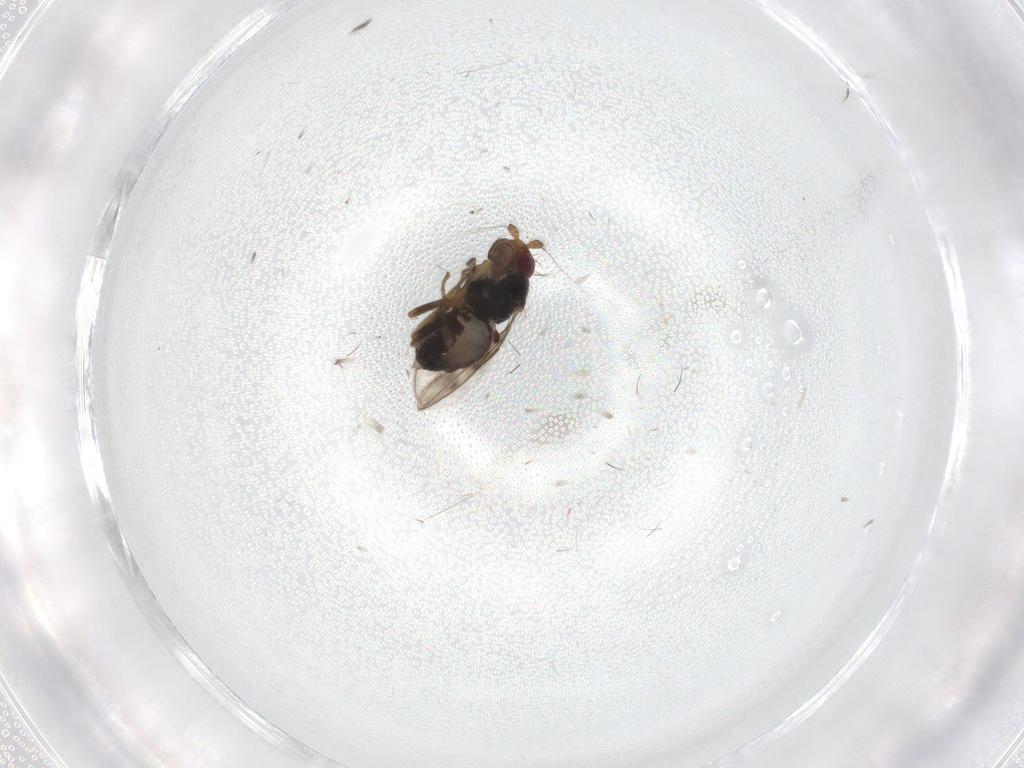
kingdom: Animalia
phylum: Arthropoda
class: Insecta
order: Diptera
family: Sphaeroceridae
